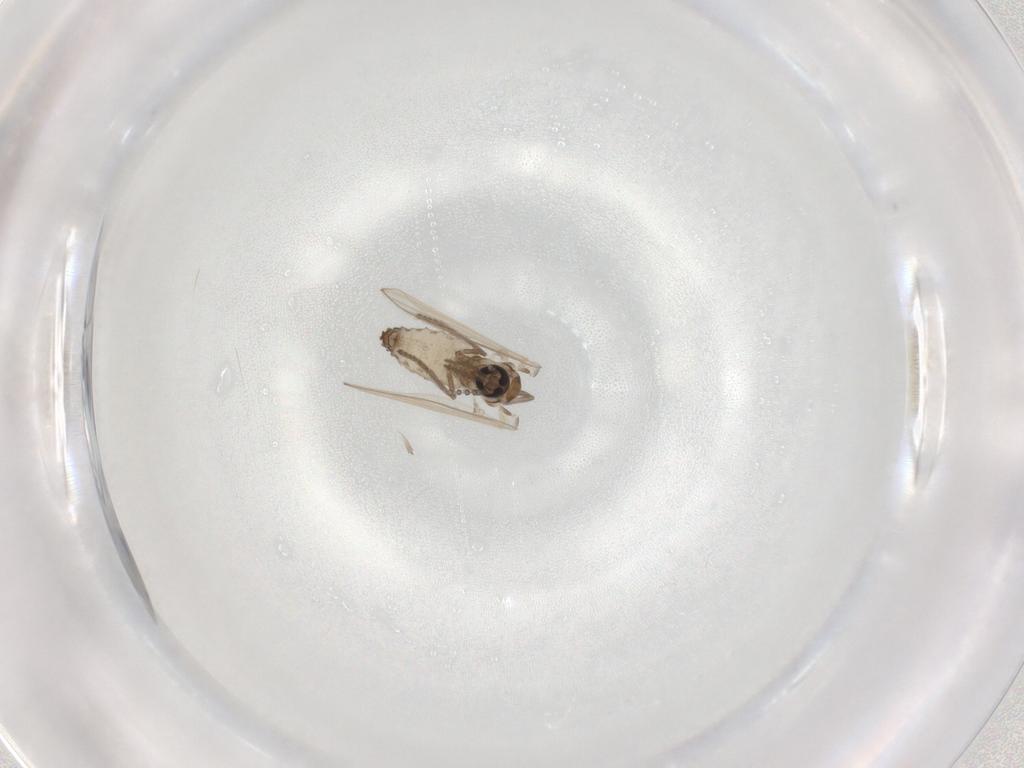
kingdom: Animalia
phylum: Arthropoda
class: Insecta
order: Diptera
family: Psychodidae
